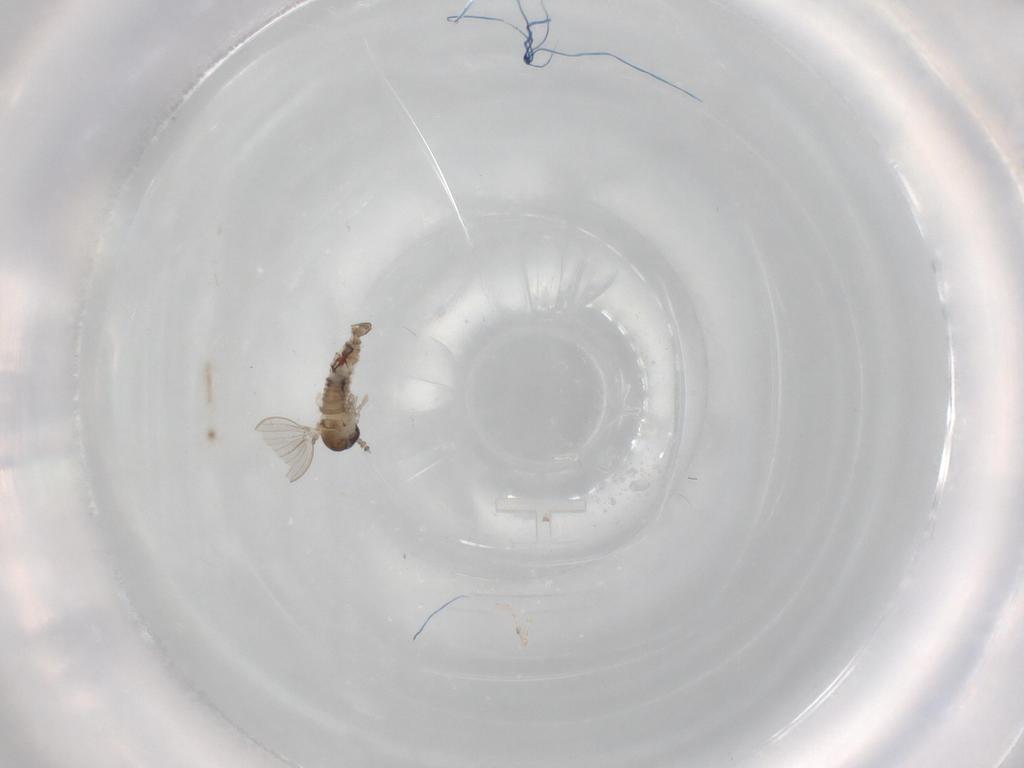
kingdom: Animalia
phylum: Arthropoda
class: Insecta
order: Diptera
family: Psychodidae
